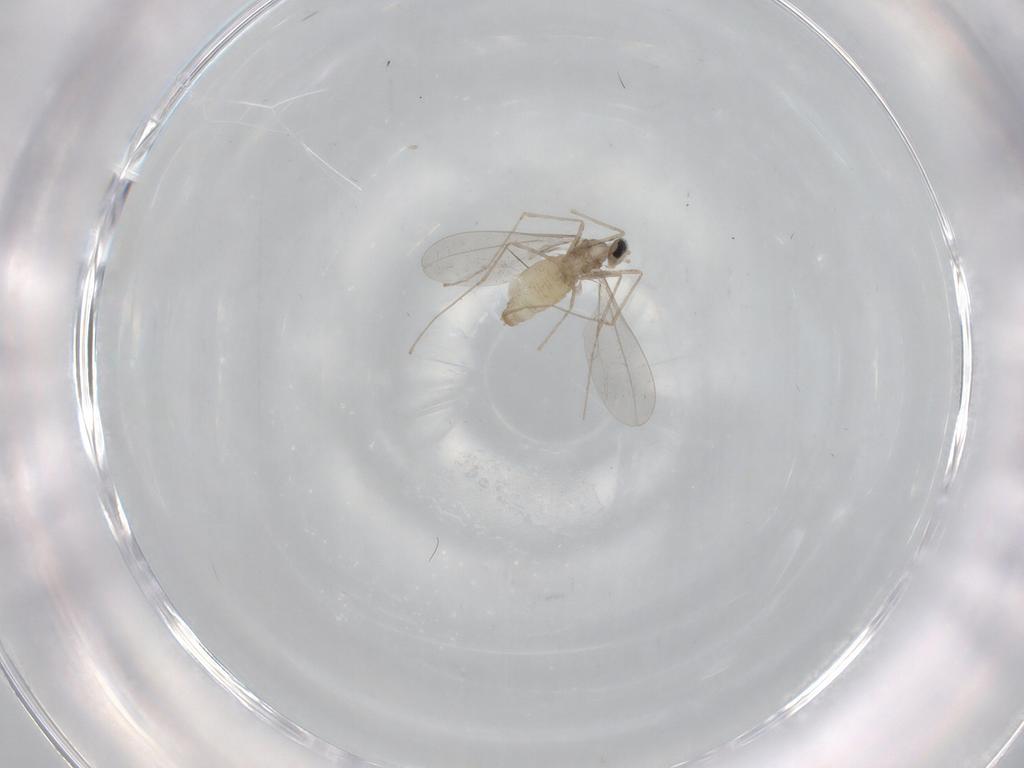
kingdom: Animalia
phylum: Arthropoda
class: Insecta
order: Diptera
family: Cecidomyiidae
